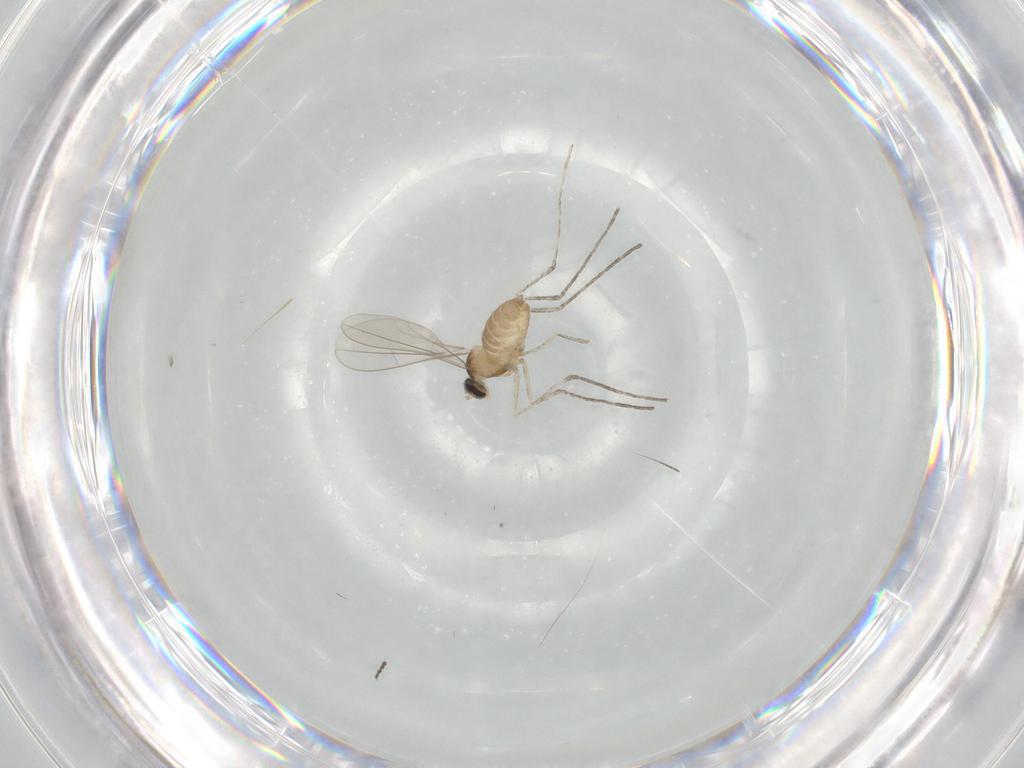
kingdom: Animalia
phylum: Arthropoda
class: Insecta
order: Diptera
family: Cecidomyiidae
